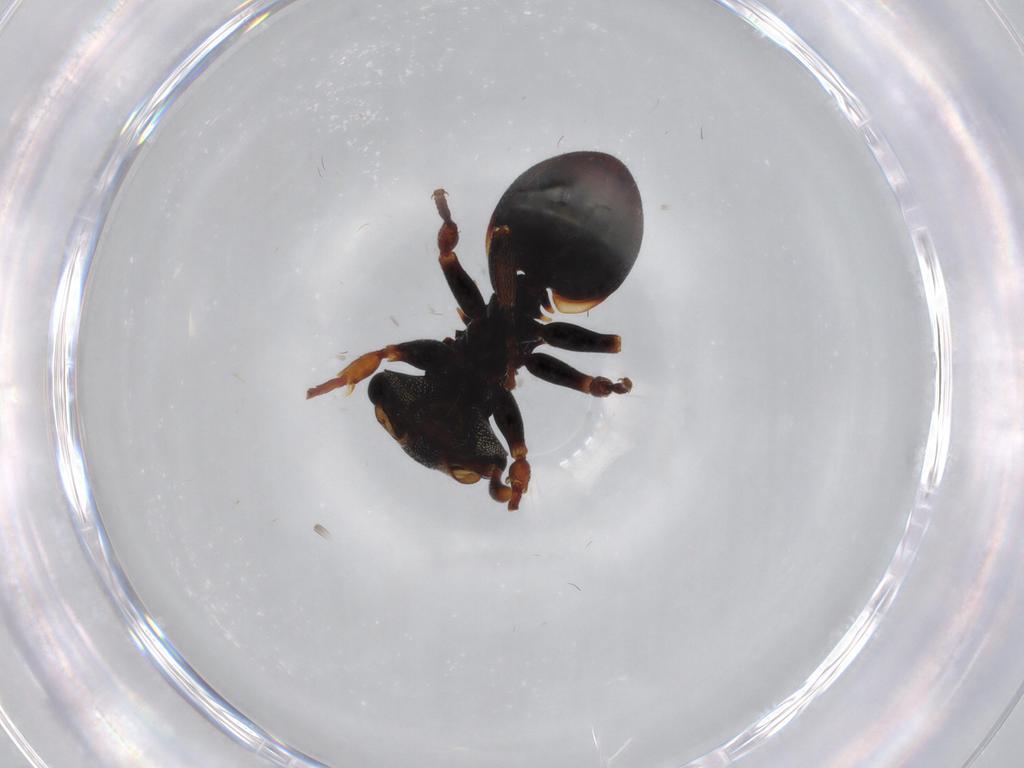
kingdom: Animalia
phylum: Arthropoda
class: Insecta
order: Hymenoptera
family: Formicidae
